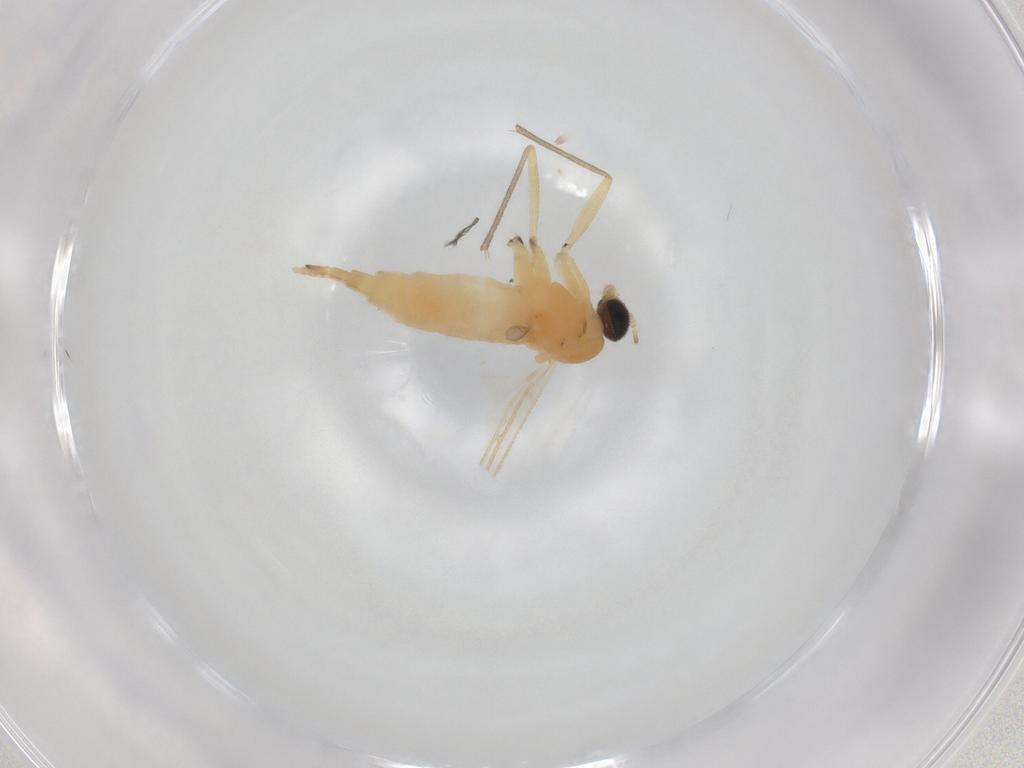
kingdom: Animalia
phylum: Arthropoda
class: Insecta
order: Diptera
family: Sciaridae
